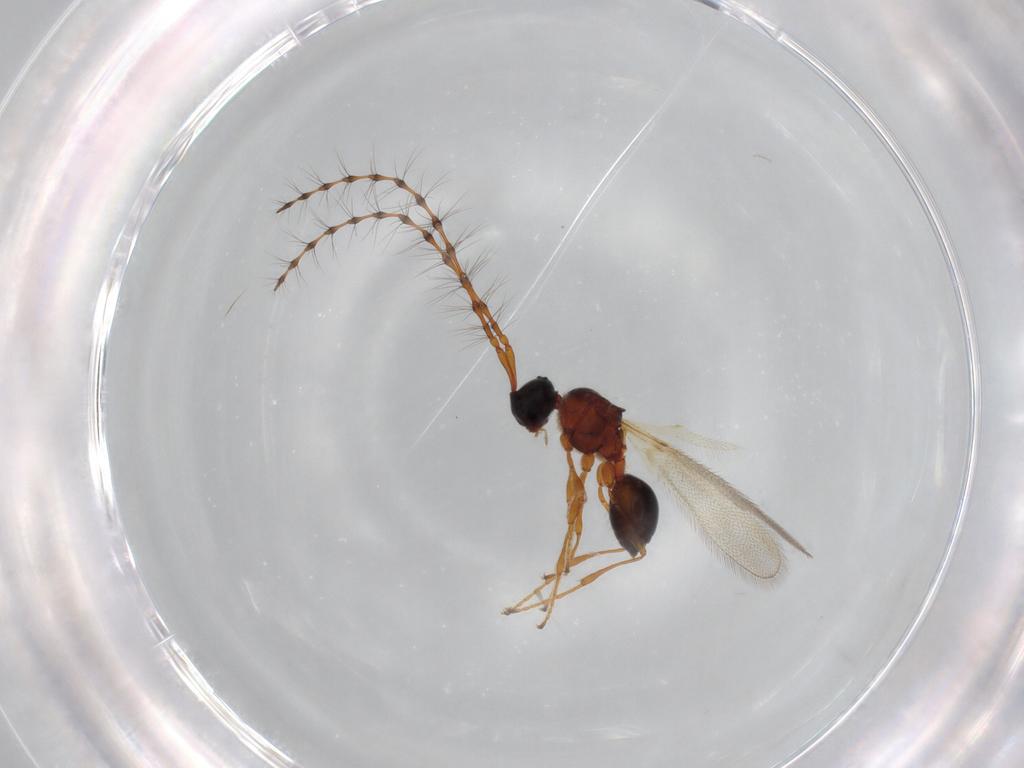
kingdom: Animalia
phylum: Arthropoda
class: Insecta
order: Hymenoptera
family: Diapriidae
